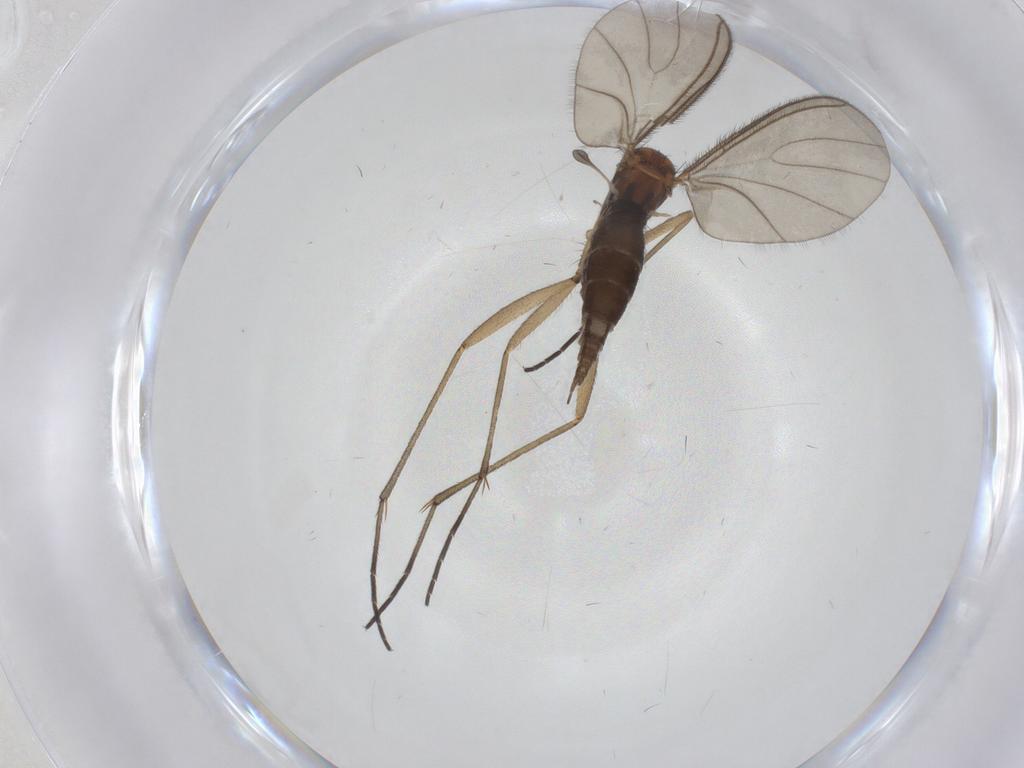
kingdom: Animalia
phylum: Arthropoda
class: Insecta
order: Diptera
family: Sciaridae
